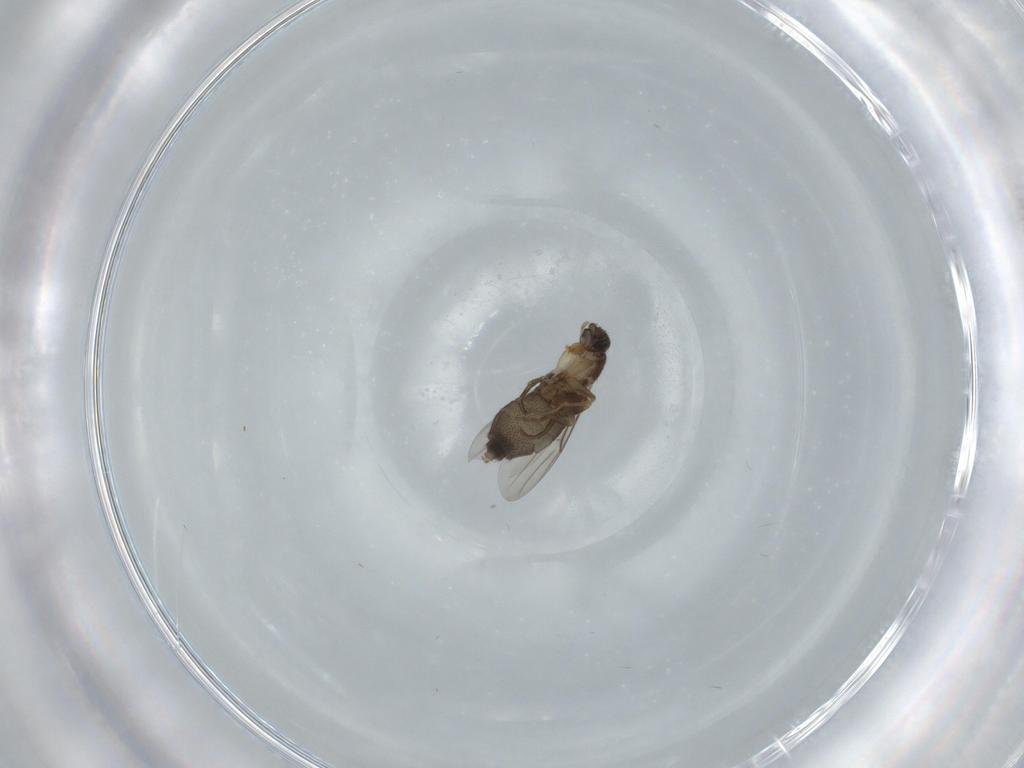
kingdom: Animalia
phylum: Arthropoda
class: Insecta
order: Diptera
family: Phoridae
